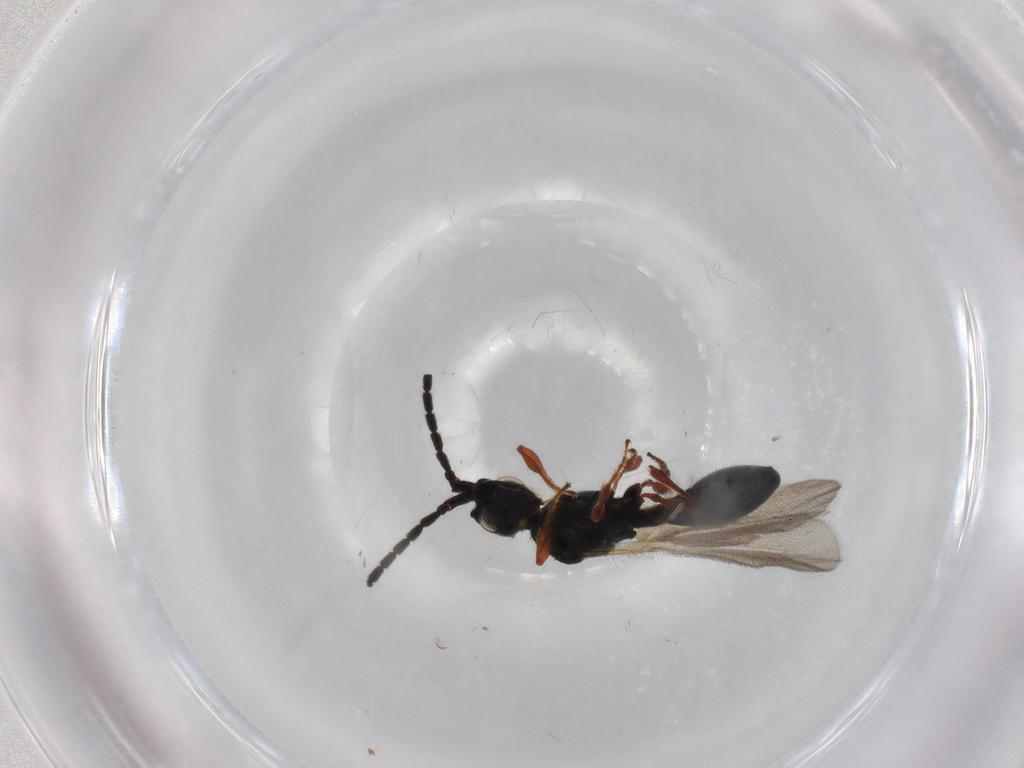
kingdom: Animalia
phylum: Arthropoda
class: Insecta
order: Hymenoptera
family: Diapriidae
